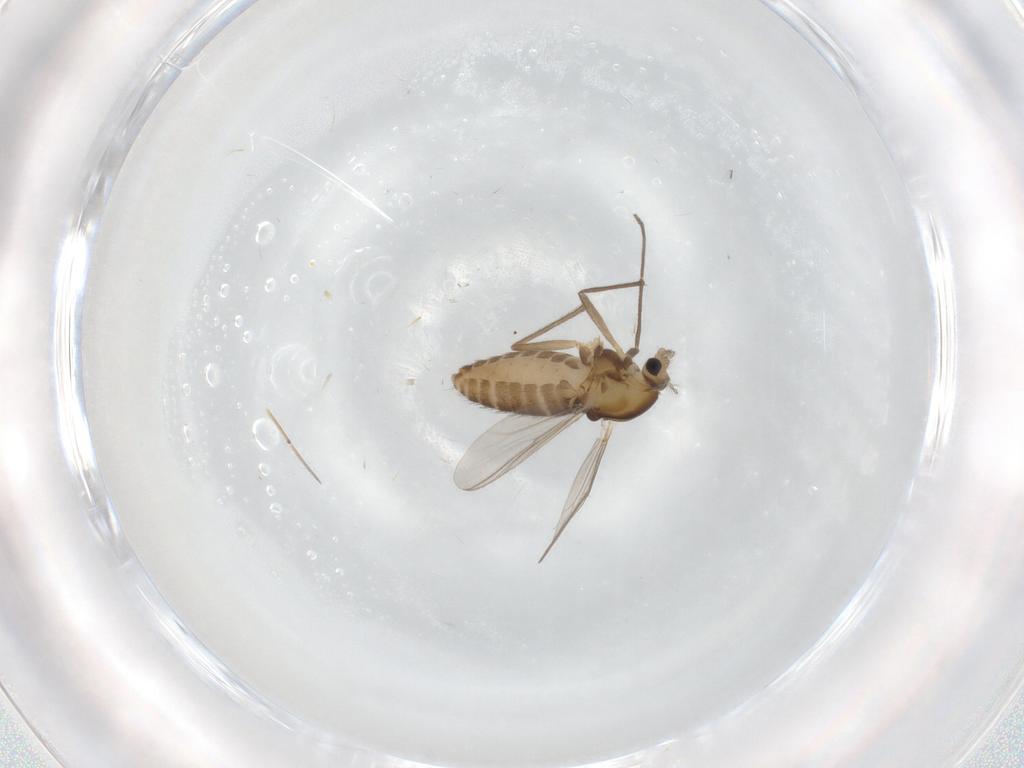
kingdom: Animalia
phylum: Arthropoda
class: Insecta
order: Diptera
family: Chironomidae
